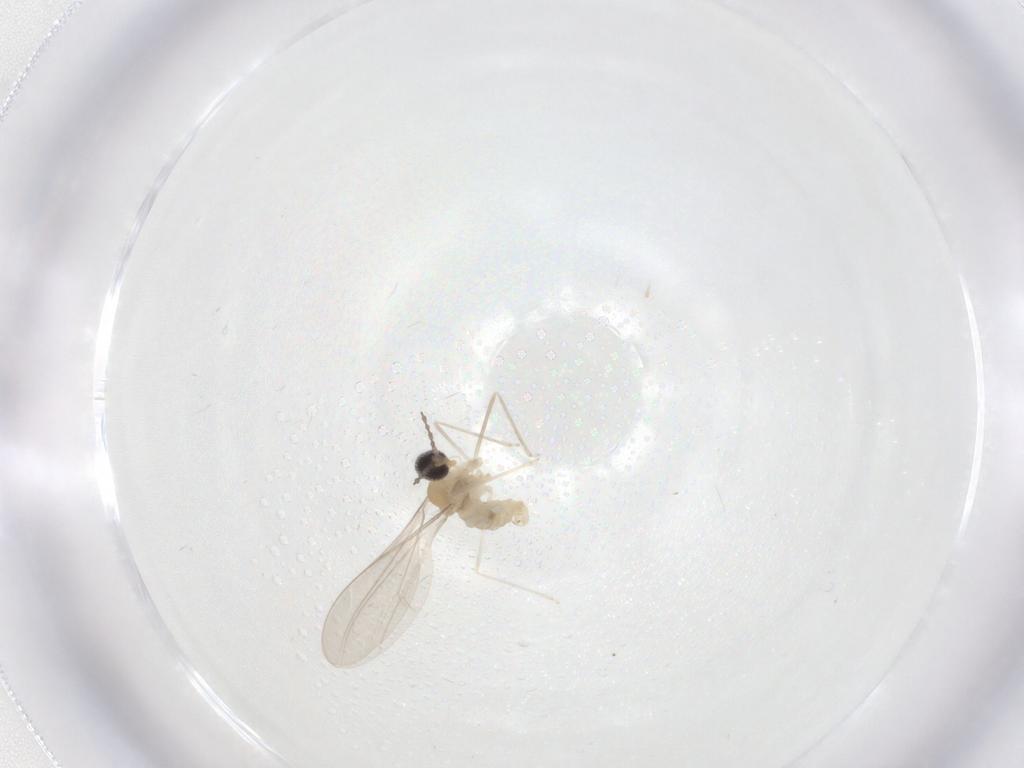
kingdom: Animalia
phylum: Arthropoda
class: Insecta
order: Diptera
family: Cecidomyiidae
